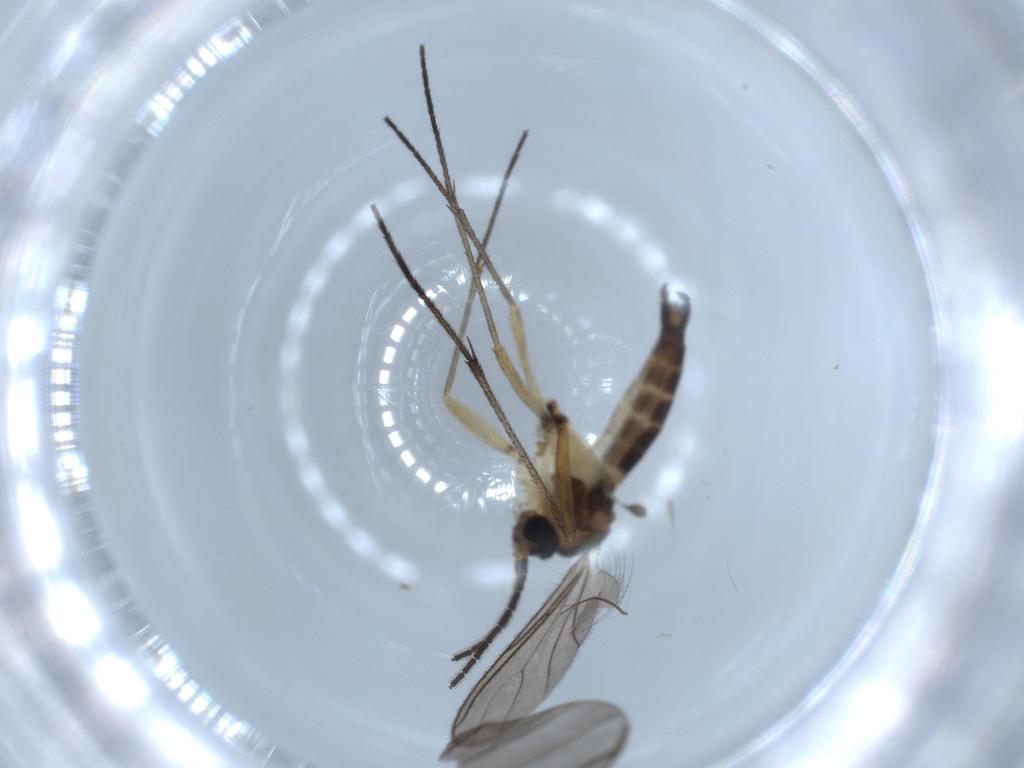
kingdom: Animalia
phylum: Arthropoda
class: Insecta
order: Diptera
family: Sciaridae
